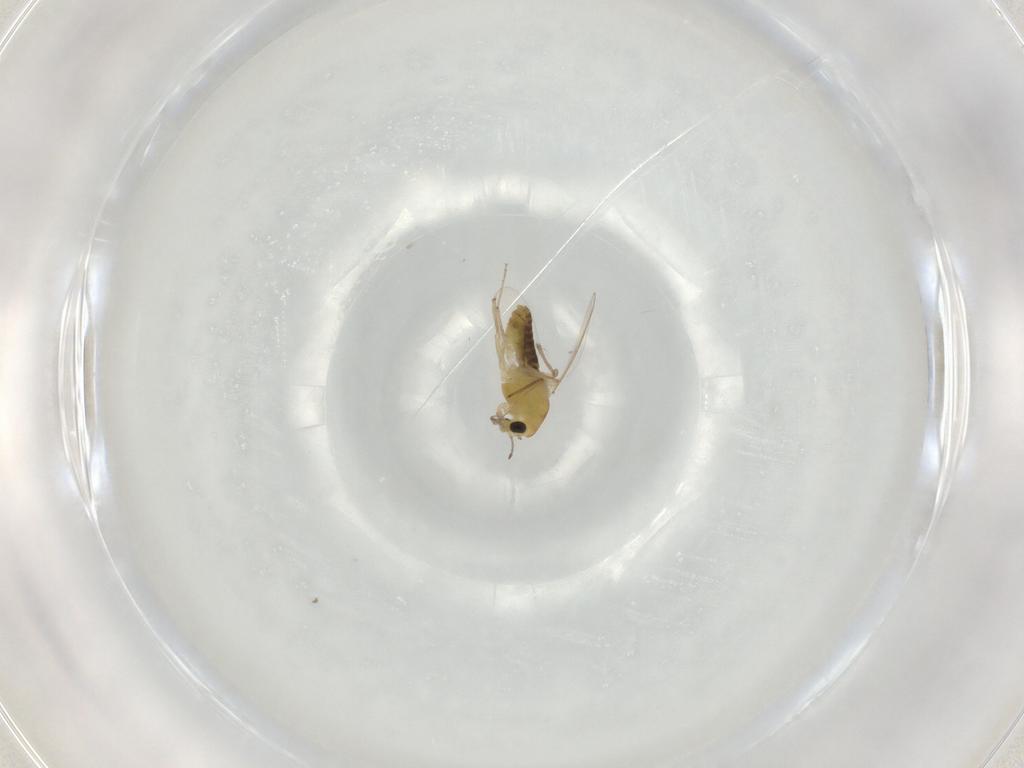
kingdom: Animalia
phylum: Arthropoda
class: Insecta
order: Diptera
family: Chironomidae
